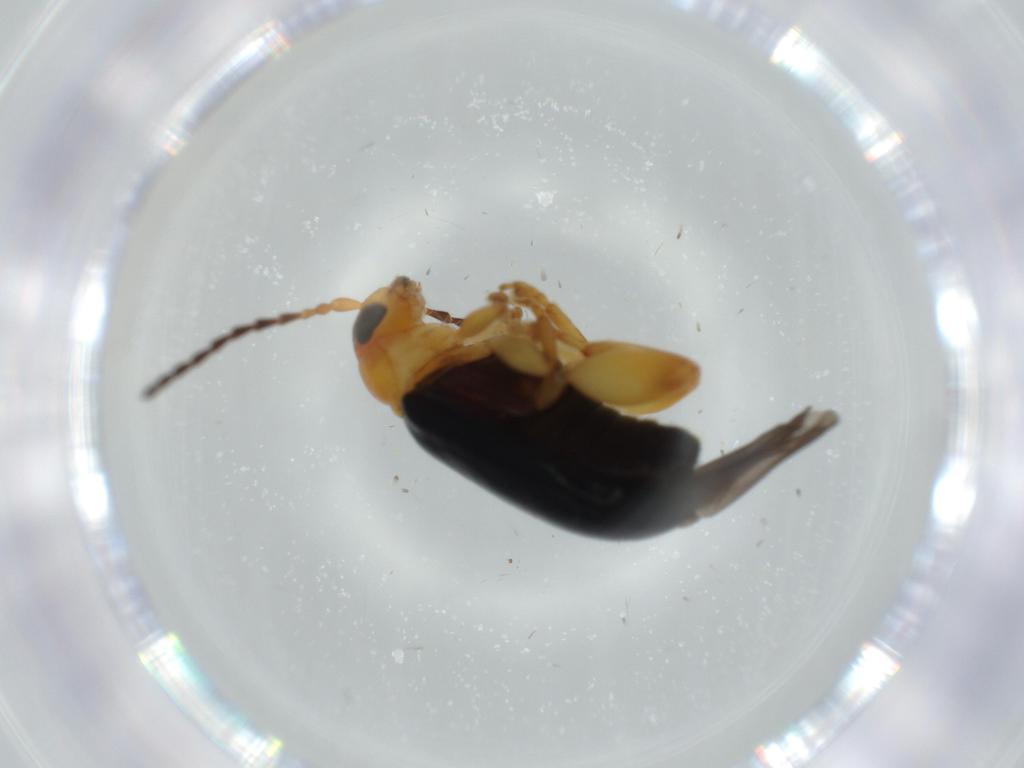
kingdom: Animalia
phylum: Arthropoda
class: Insecta
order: Coleoptera
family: Chrysomelidae
